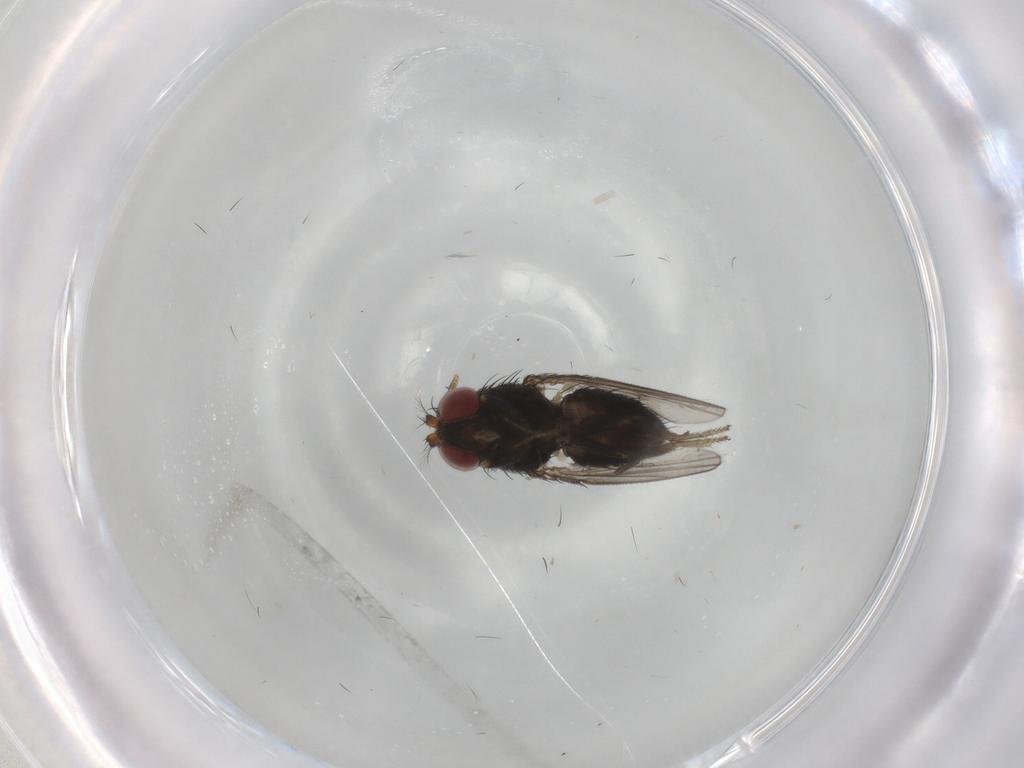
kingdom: Animalia
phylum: Arthropoda
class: Insecta
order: Diptera
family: Ephydridae
